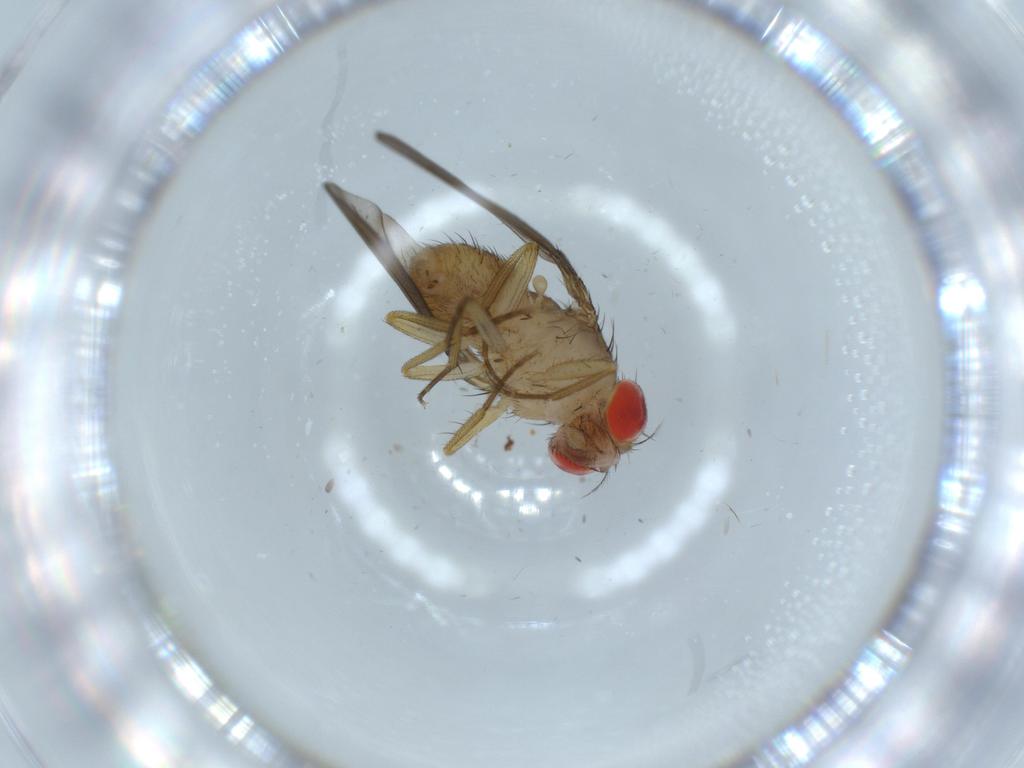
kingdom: Animalia
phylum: Arthropoda
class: Insecta
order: Diptera
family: Drosophilidae
